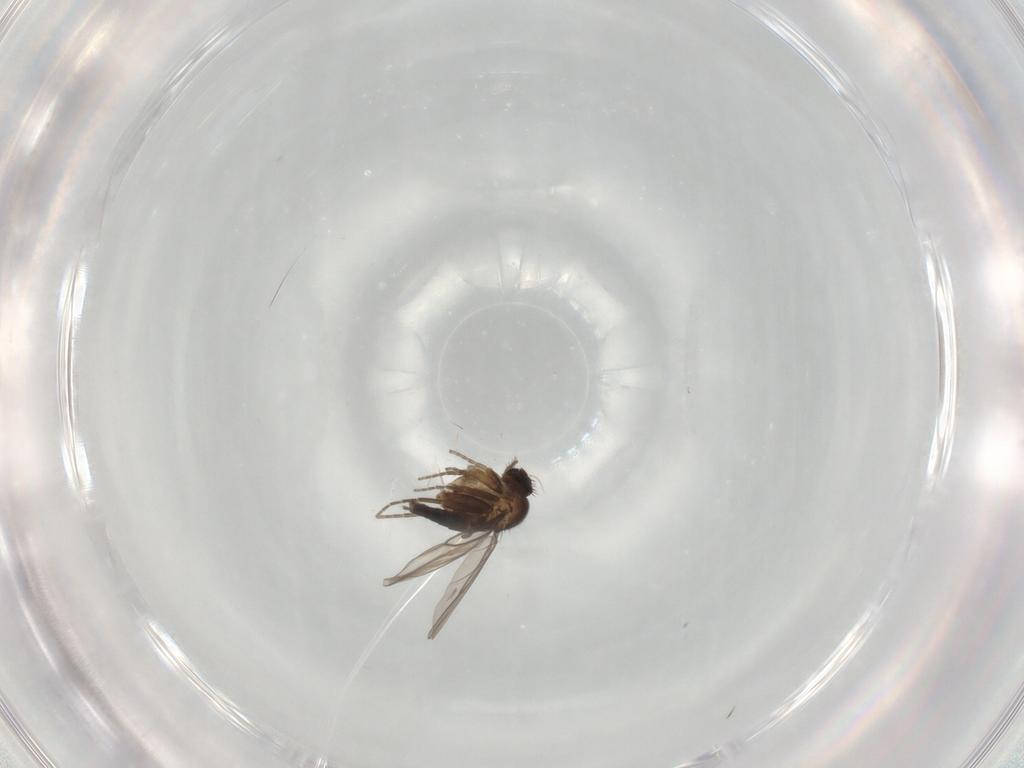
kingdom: Animalia
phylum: Arthropoda
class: Insecta
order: Diptera
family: Phoridae
